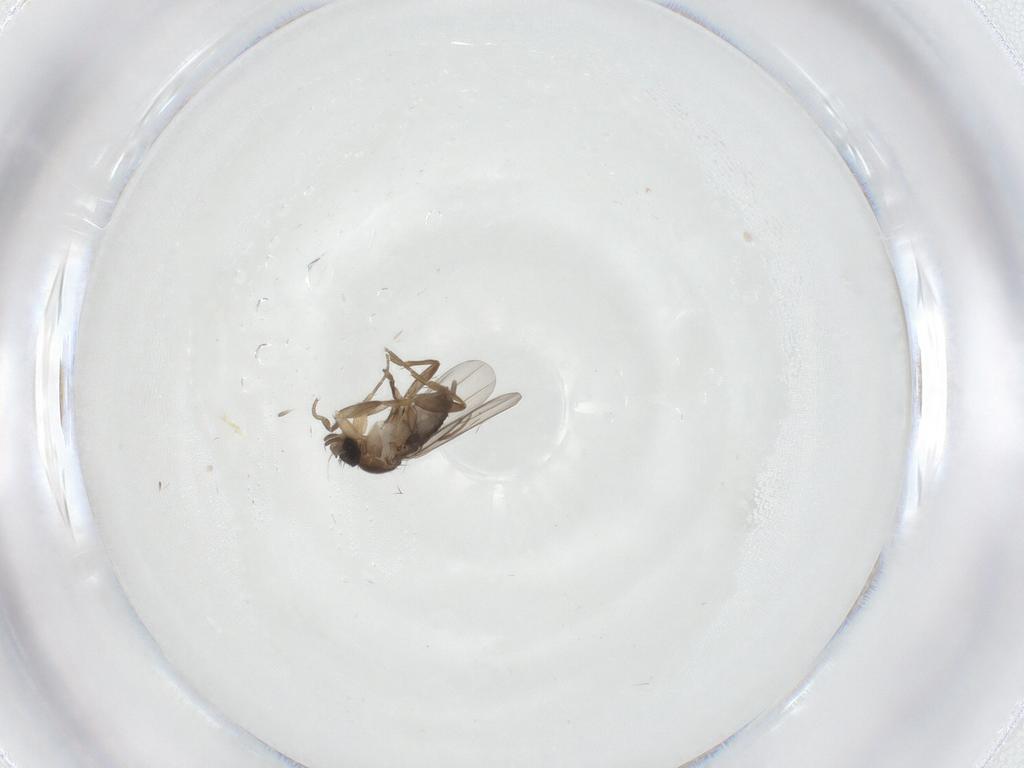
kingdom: Animalia
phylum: Arthropoda
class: Insecta
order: Diptera
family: Phoridae
